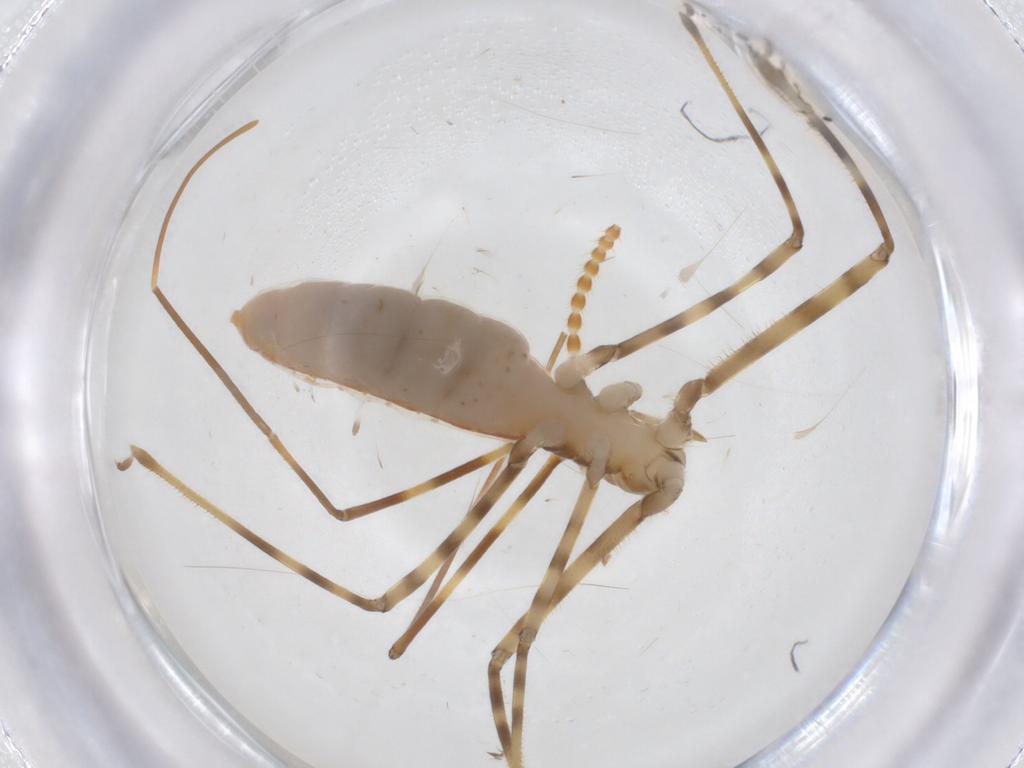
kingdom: Animalia
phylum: Arthropoda
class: Insecta
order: Hemiptera
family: Reduviidae
